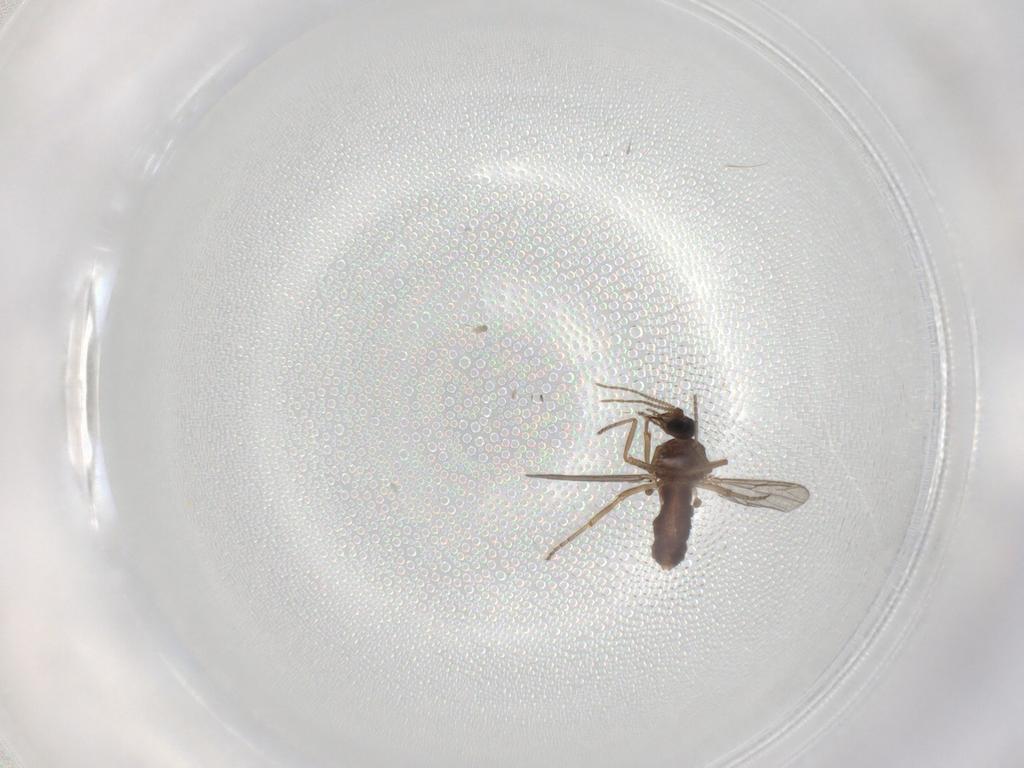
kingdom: Animalia
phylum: Arthropoda
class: Insecta
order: Diptera
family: Ceratopogonidae
